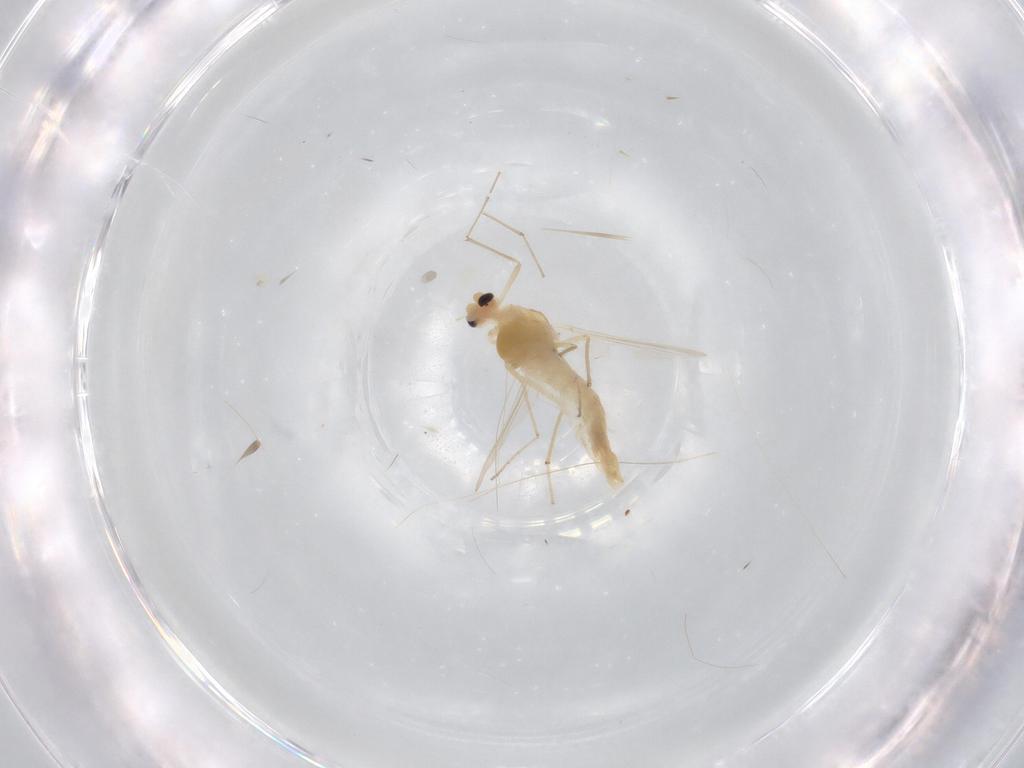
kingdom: Animalia
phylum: Arthropoda
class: Insecta
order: Diptera
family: Chironomidae
